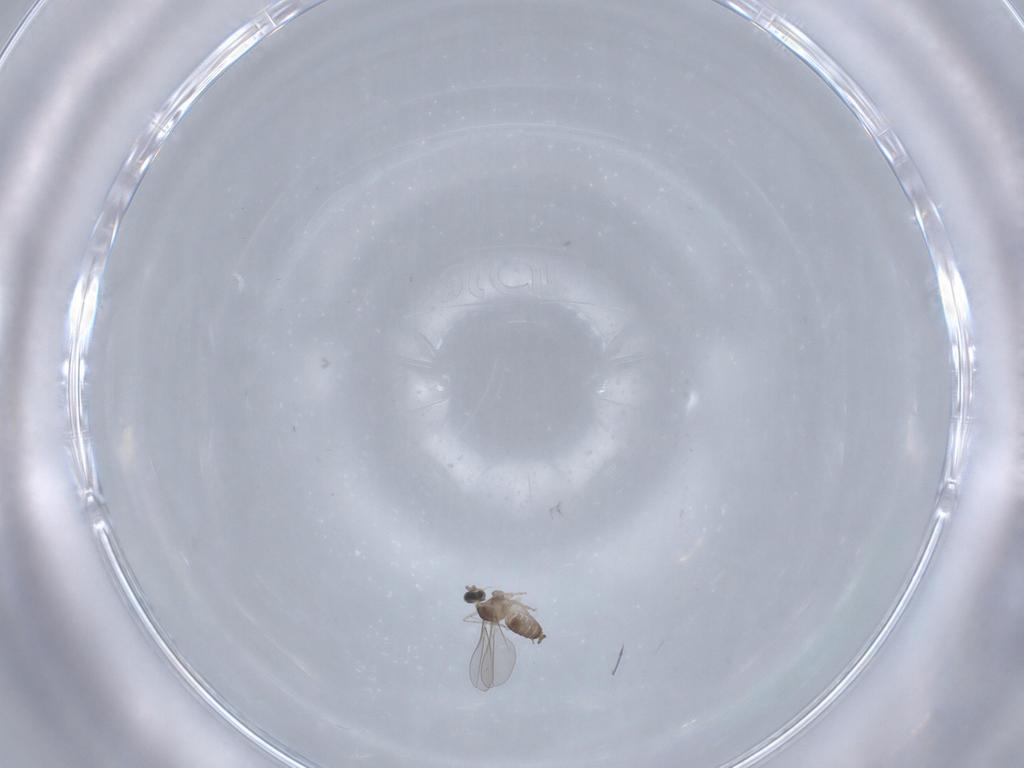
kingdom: Animalia
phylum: Arthropoda
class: Insecta
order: Diptera
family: Cecidomyiidae
